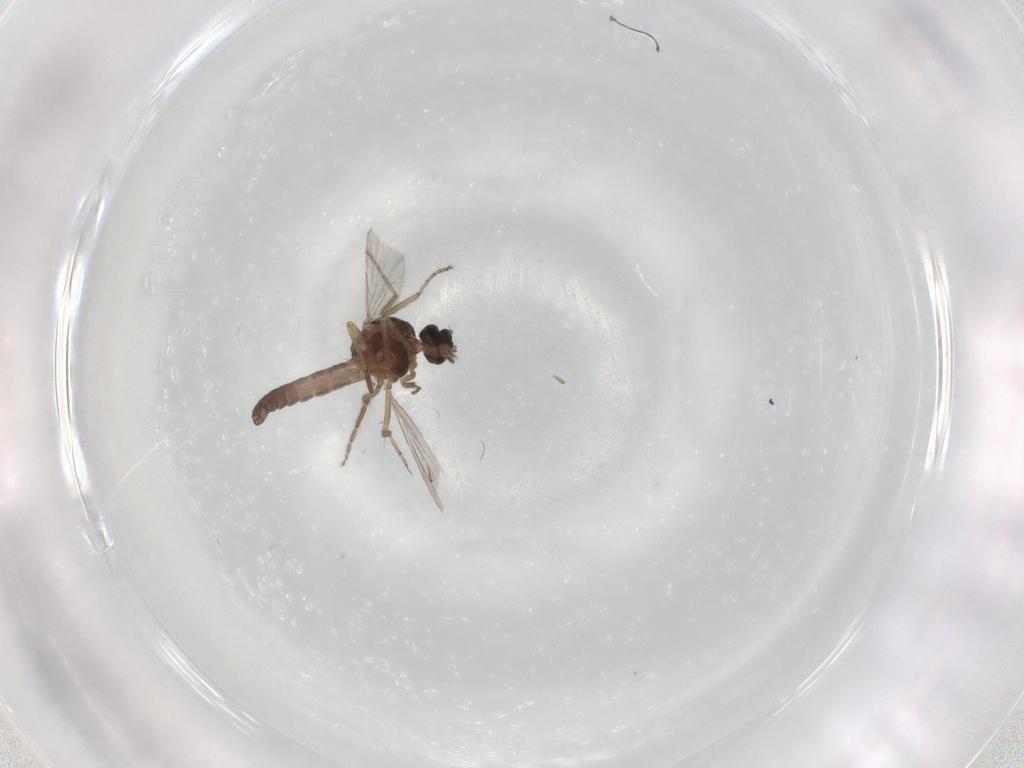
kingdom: Animalia
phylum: Arthropoda
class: Insecta
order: Diptera
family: Ceratopogonidae
